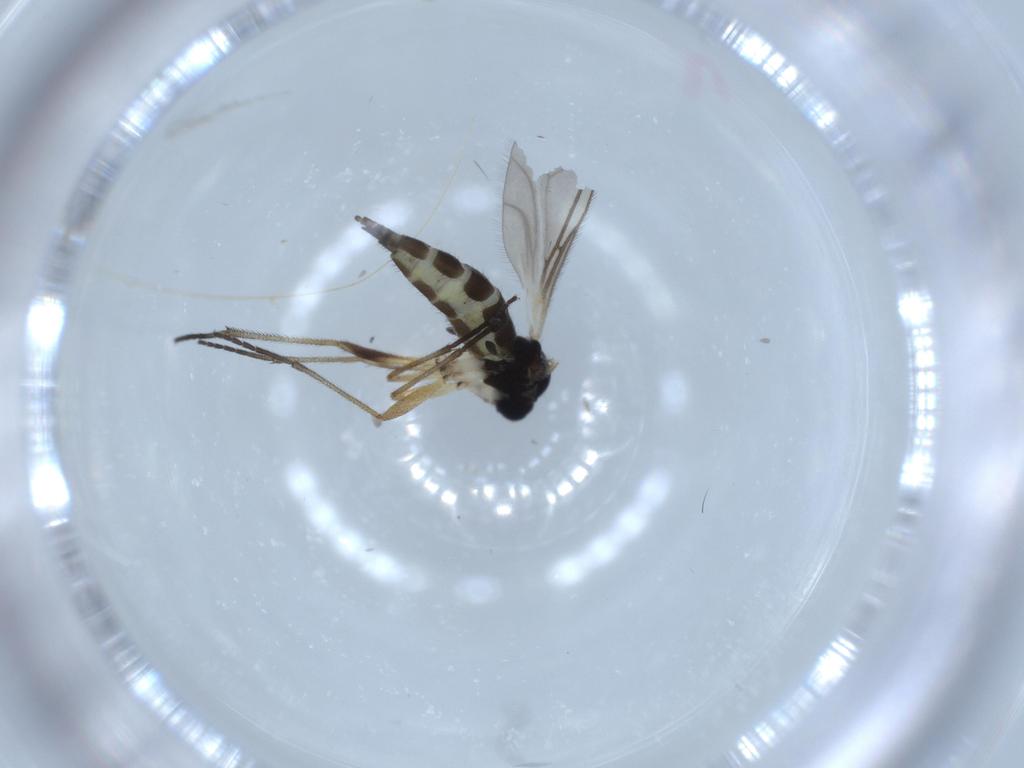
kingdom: Animalia
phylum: Arthropoda
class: Insecta
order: Diptera
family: Sciaridae
